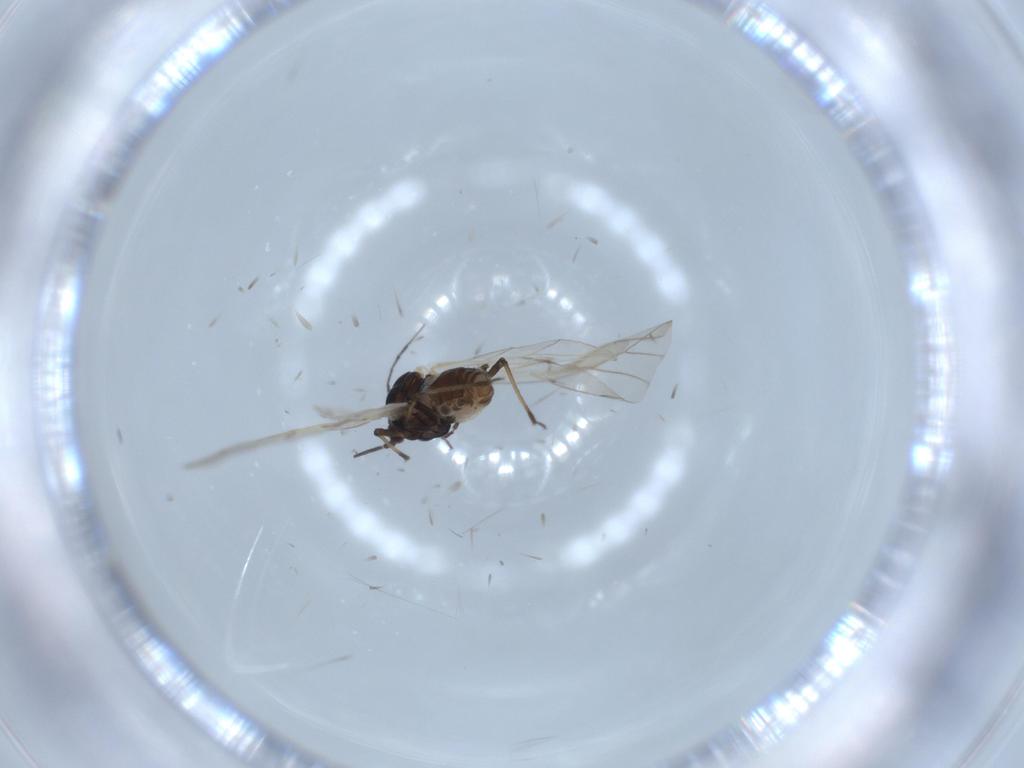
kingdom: Animalia
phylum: Arthropoda
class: Insecta
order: Hemiptera
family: Aphididae
